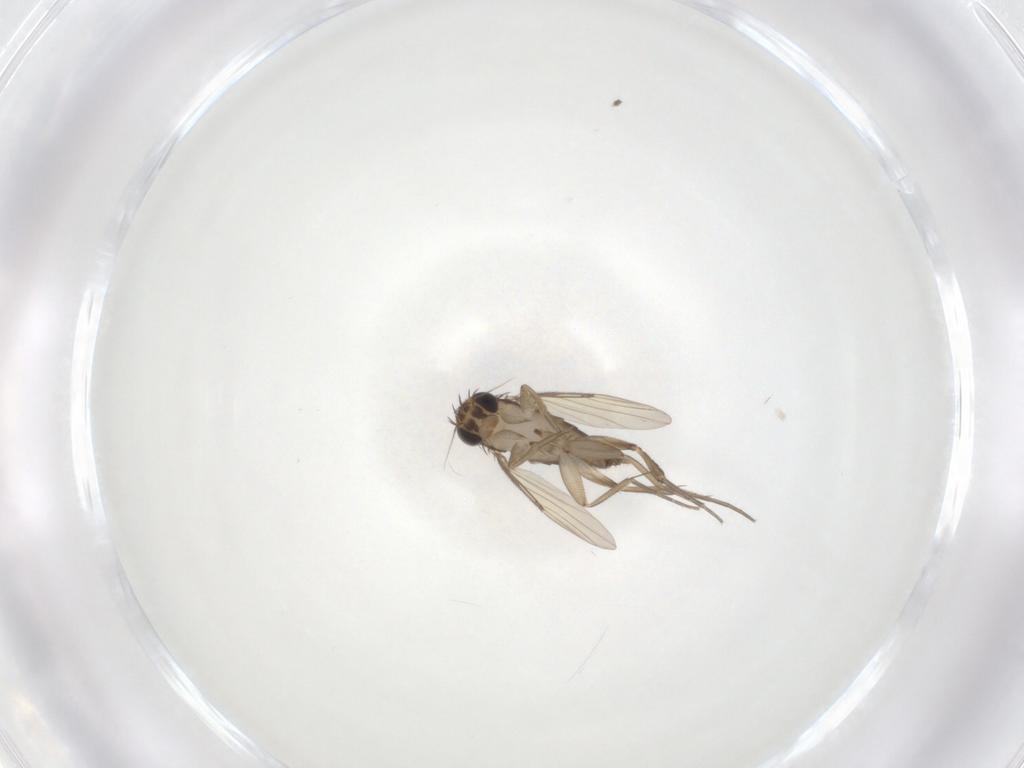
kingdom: Animalia
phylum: Arthropoda
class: Insecta
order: Diptera
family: Phoridae
